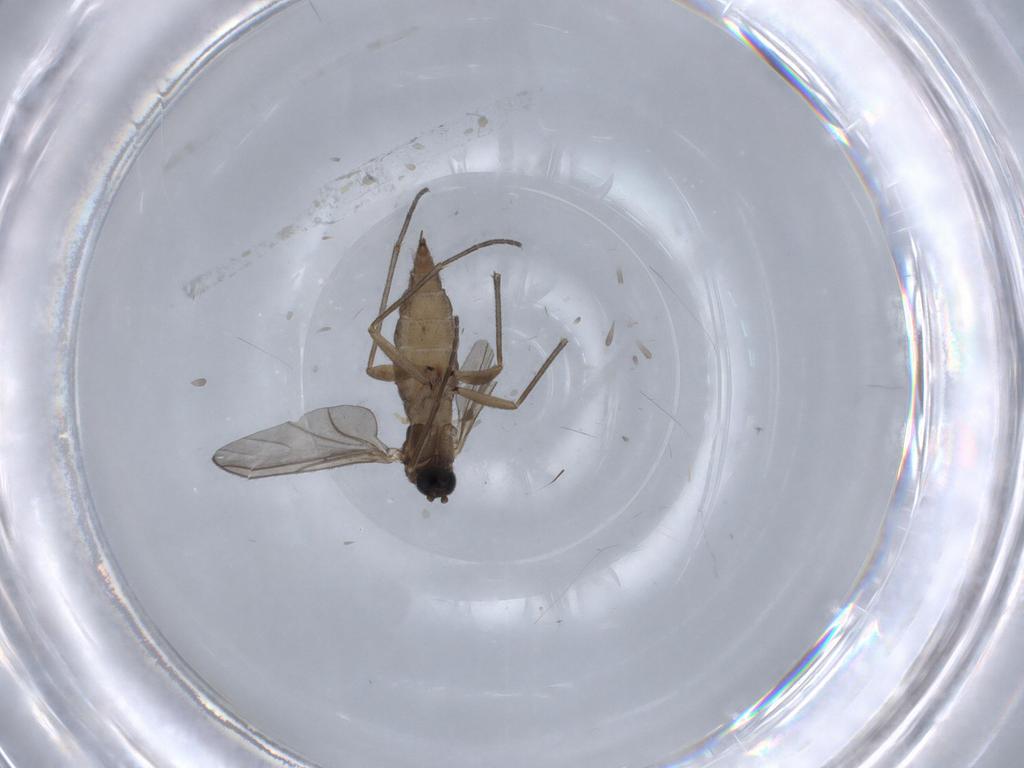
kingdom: Animalia
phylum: Arthropoda
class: Insecta
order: Diptera
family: Sciaridae
